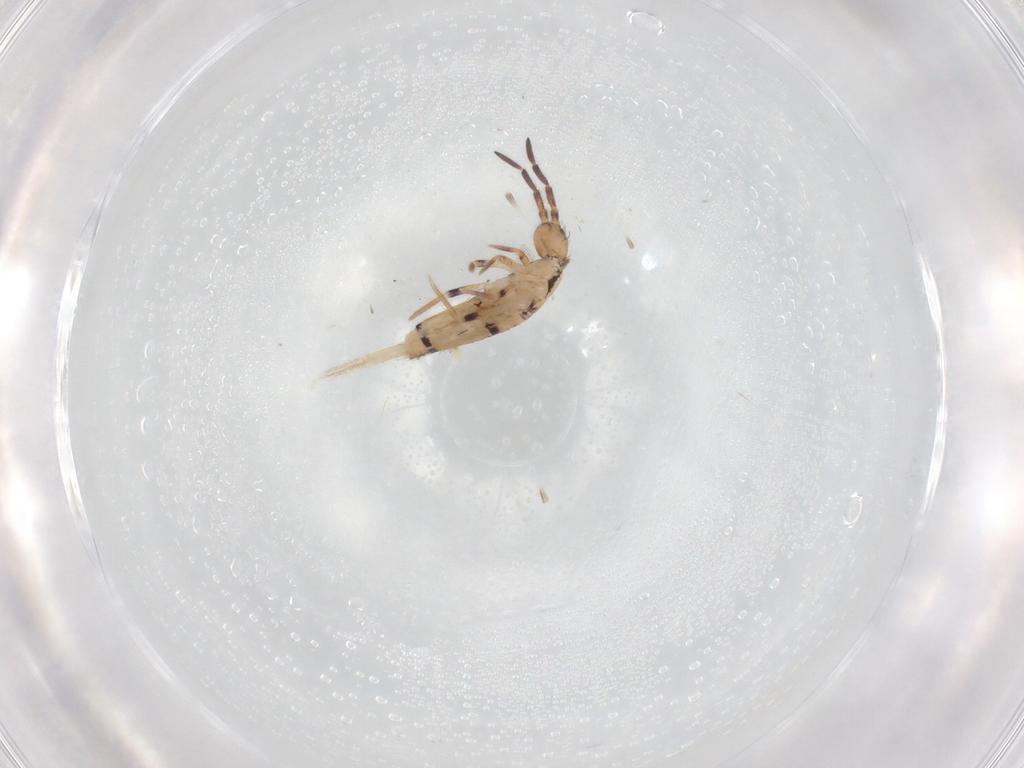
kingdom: Animalia
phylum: Arthropoda
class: Collembola
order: Entomobryomorpha
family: Entomobryidae
